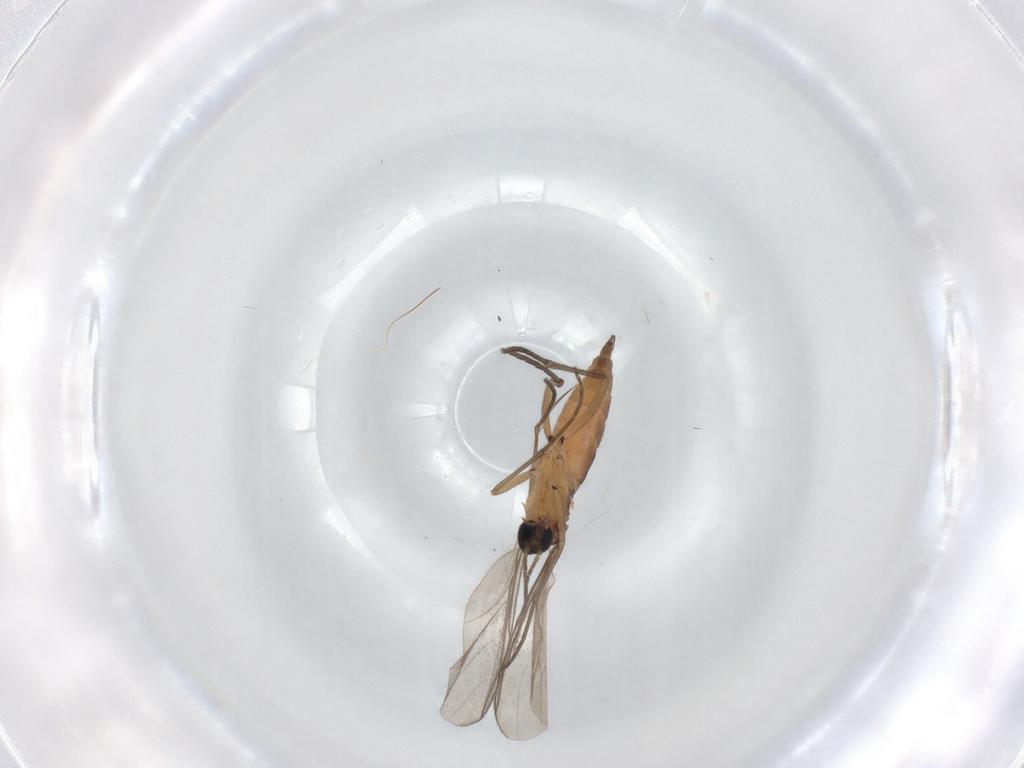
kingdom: Animalia
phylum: Arthropoda
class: Insecta
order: Diptera
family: Sciaridae
